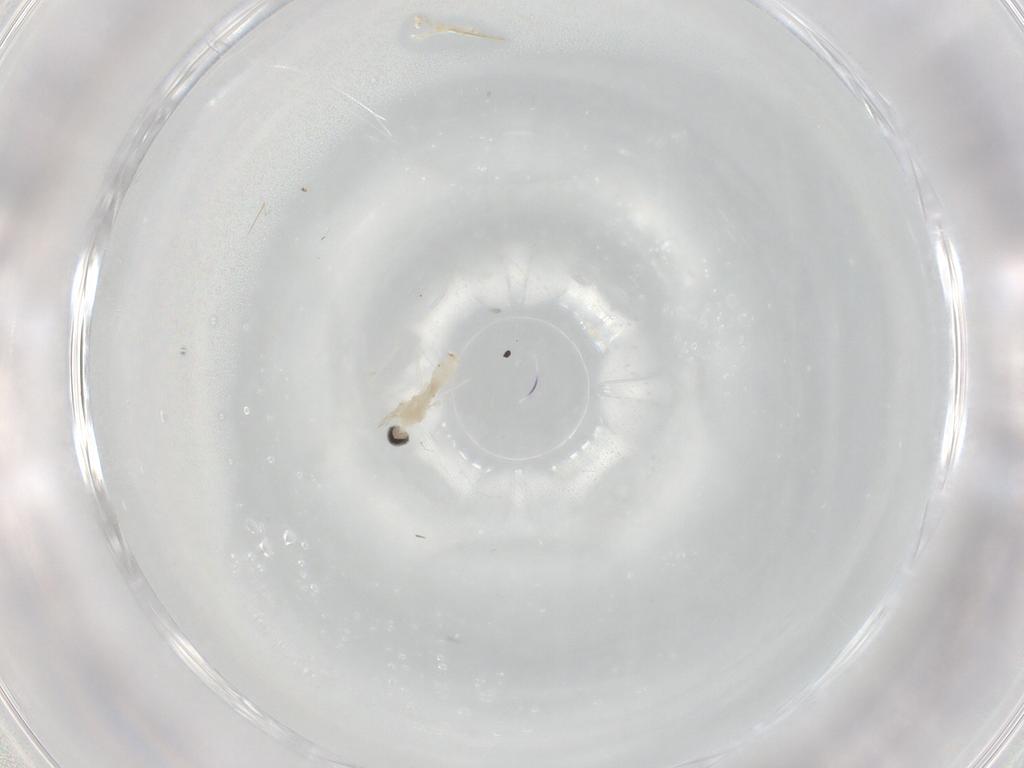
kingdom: Animalia
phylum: Arthropoda
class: Insecta
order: Diptera
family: Cecidomyiidae
